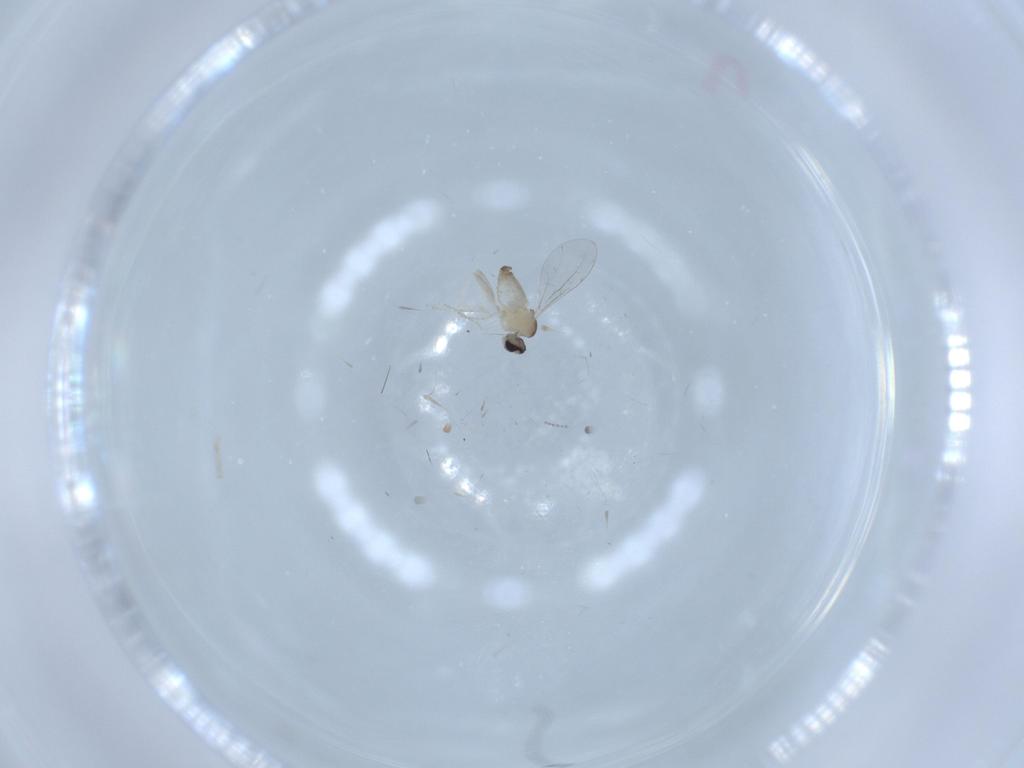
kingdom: Animalia
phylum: Arthropoda
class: Insecta
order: Diptera
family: Cecidomyiidae
